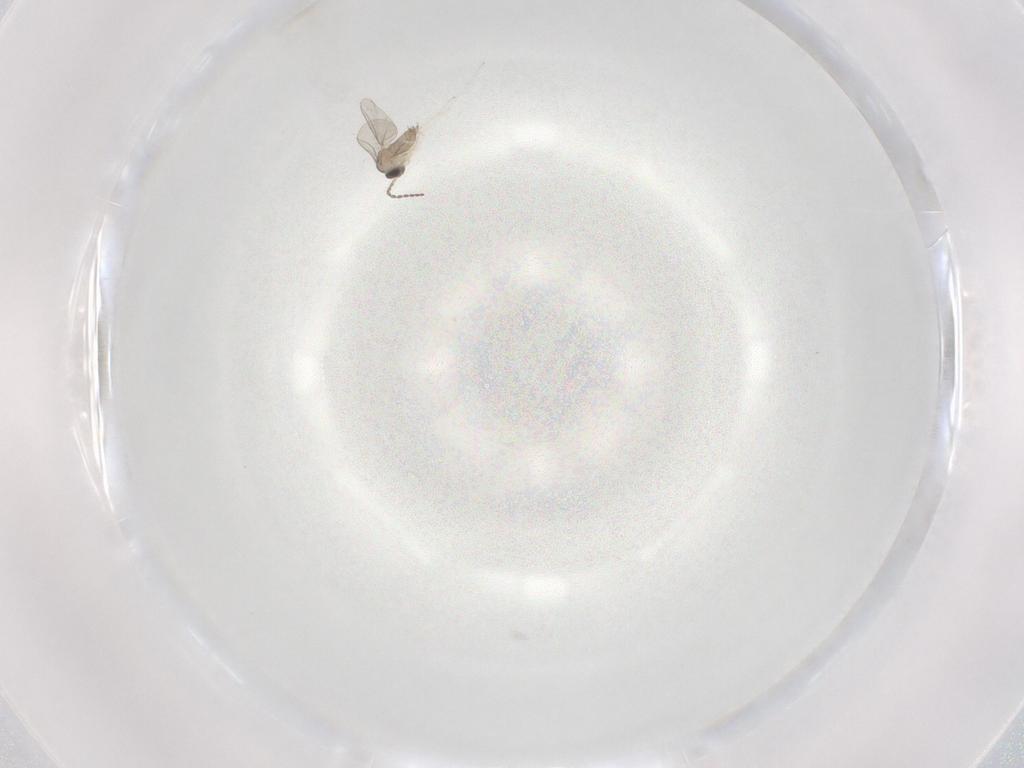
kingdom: Animalia
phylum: Arthropoda
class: Insecta
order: Diptera
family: Cecidomyiidae
